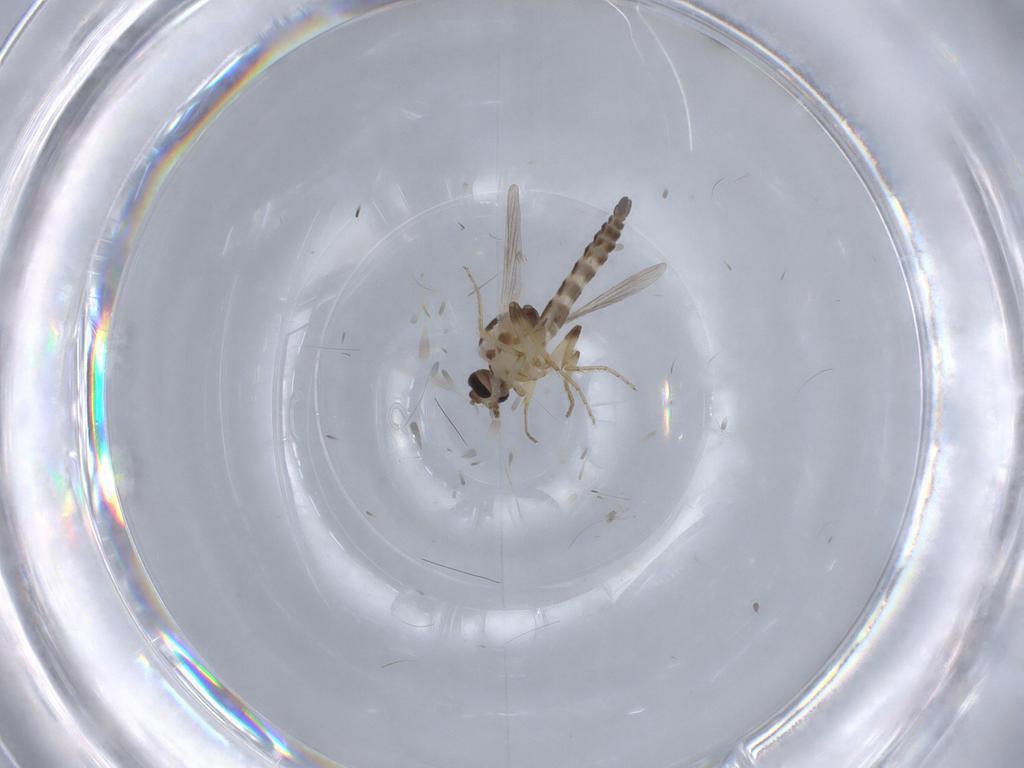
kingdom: Animalia
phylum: Arthropoda
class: Insecta
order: Diptera
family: Ceratopogonidae
